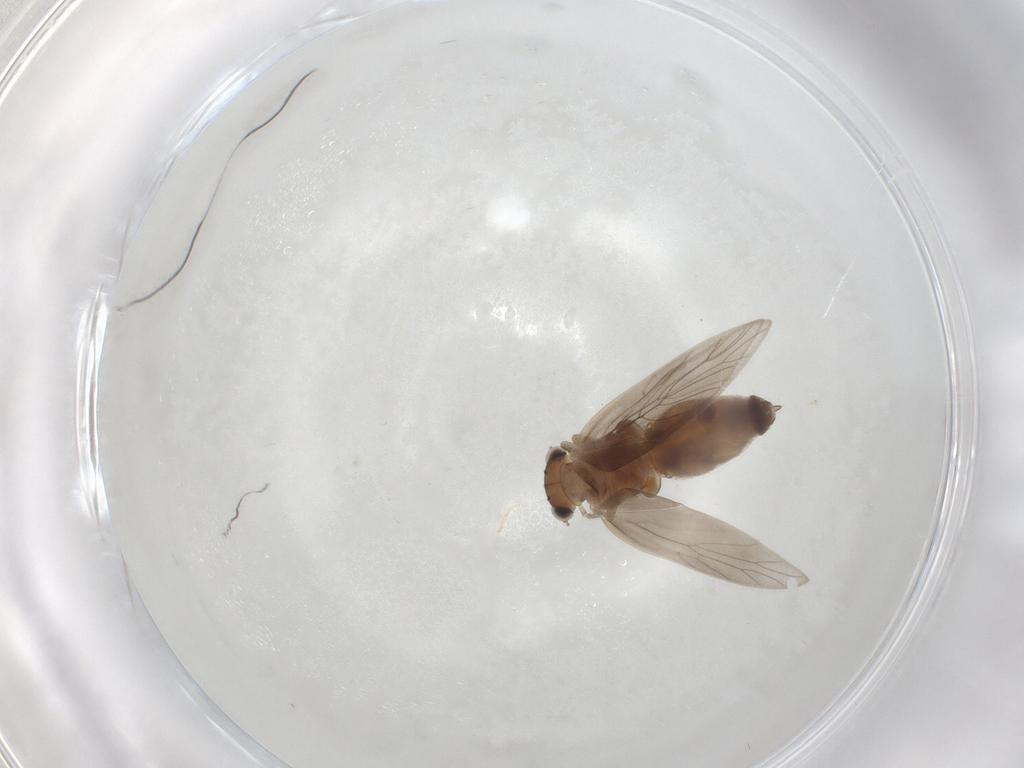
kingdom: Animalia
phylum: Arthropoda
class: Insecta
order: Psocodea
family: Lepidopsocidae
